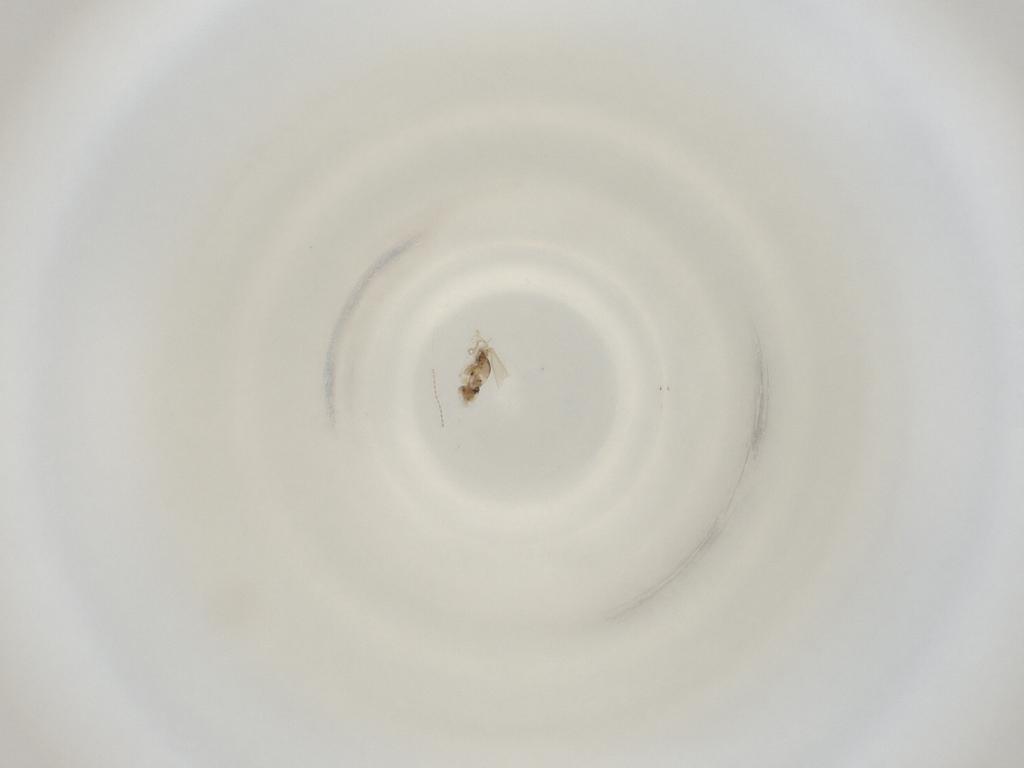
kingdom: Animalia
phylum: Arthropoda
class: Insecta
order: Diptera
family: Cecidomyiidae
